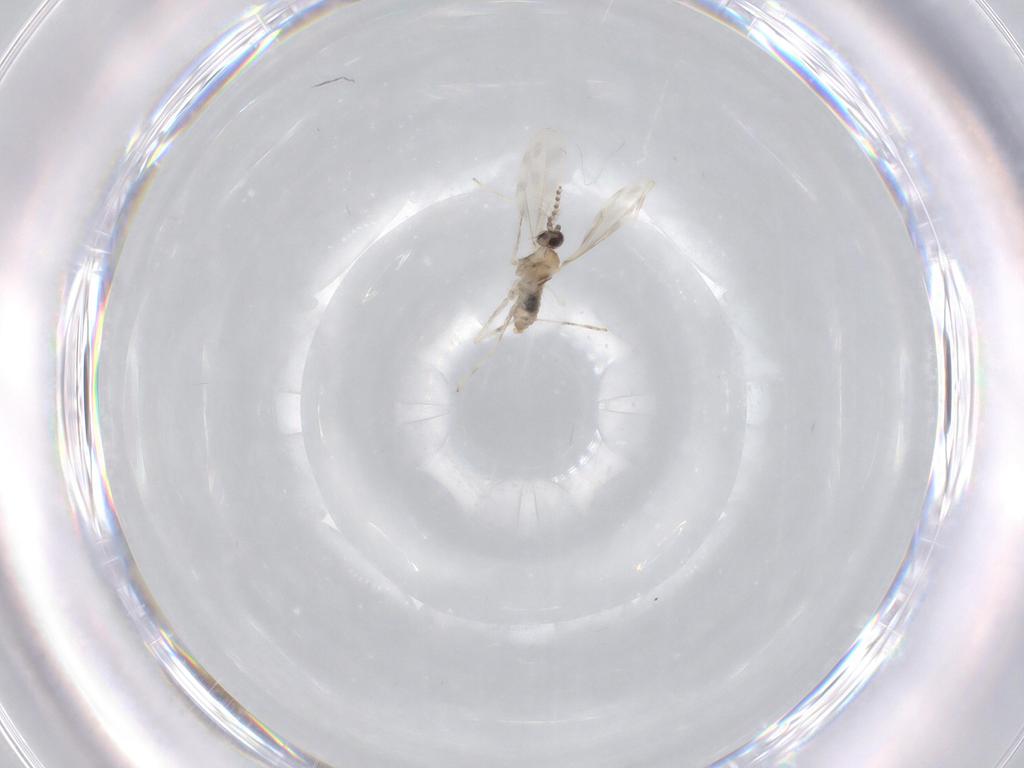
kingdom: Animalia
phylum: Arthropoda
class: Insecta
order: Diptera
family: Cecidomyiidae
